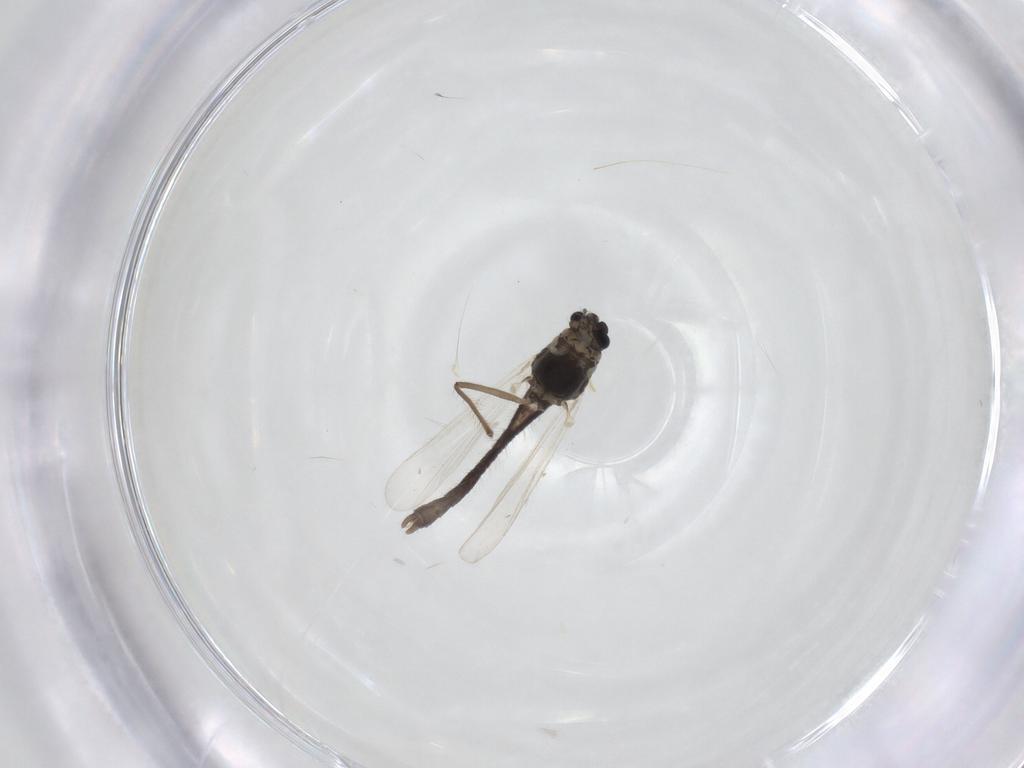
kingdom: Animalia
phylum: Arthropoda
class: Insecta
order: Diptera
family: Chironomidae
